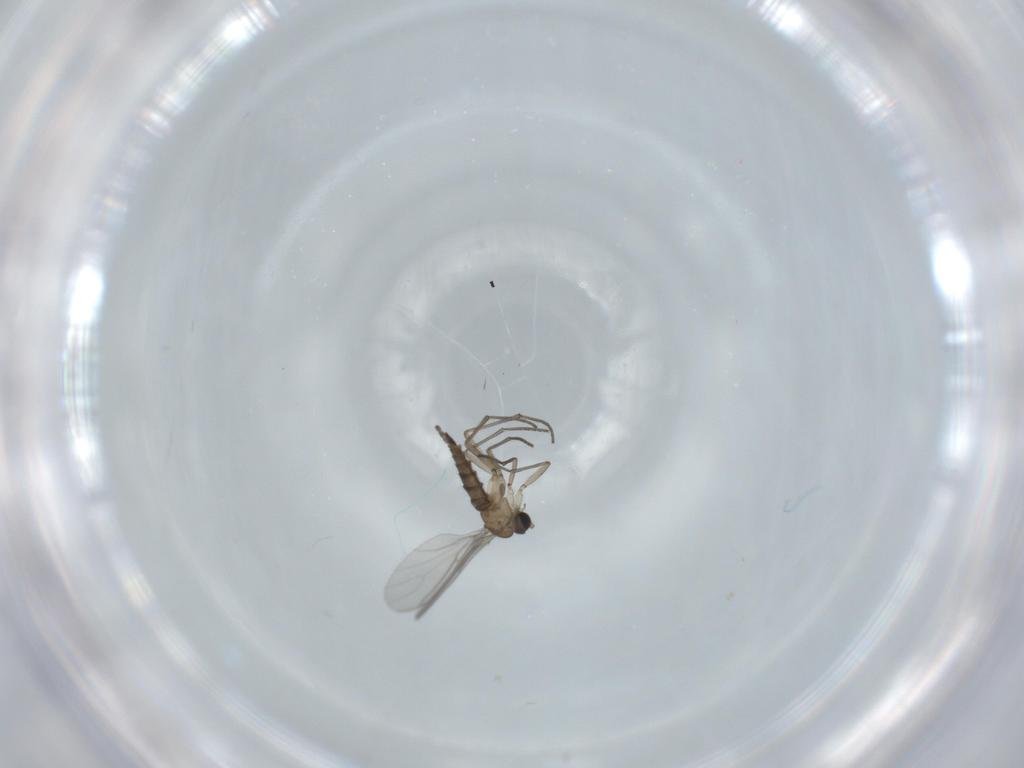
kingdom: Animalia
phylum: Arthropoda
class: Insecta
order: Diptera
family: Sciaridae
